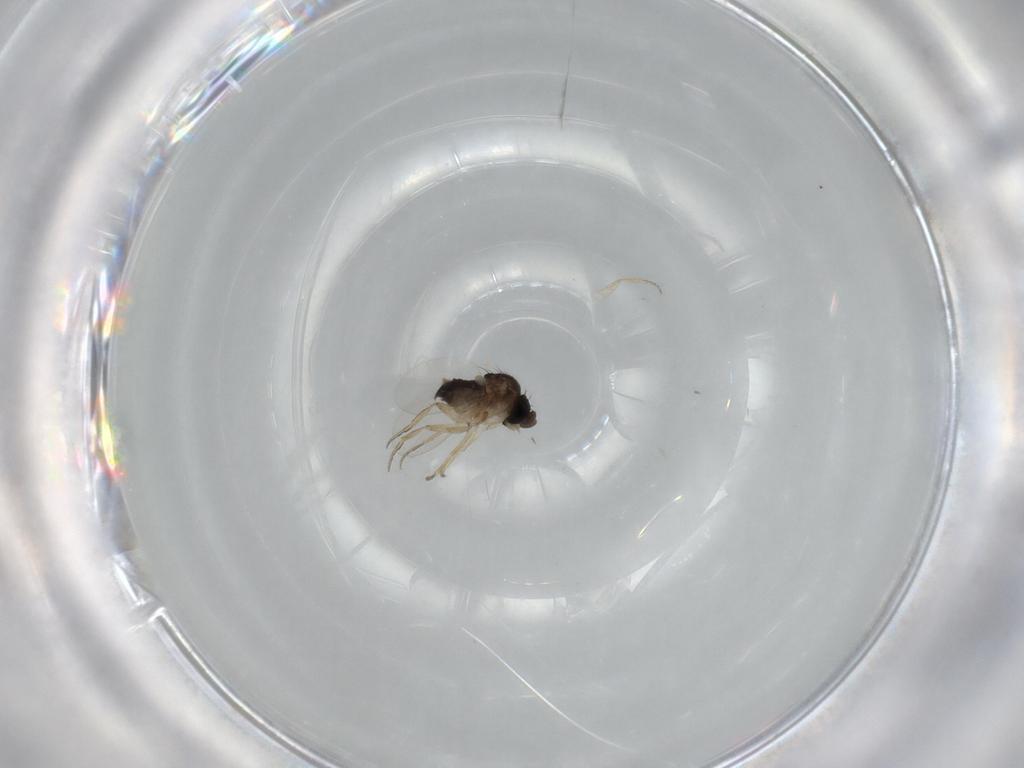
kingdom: Animalia
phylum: Arthropoda
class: Insecta
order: Diptera
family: Phoridae
